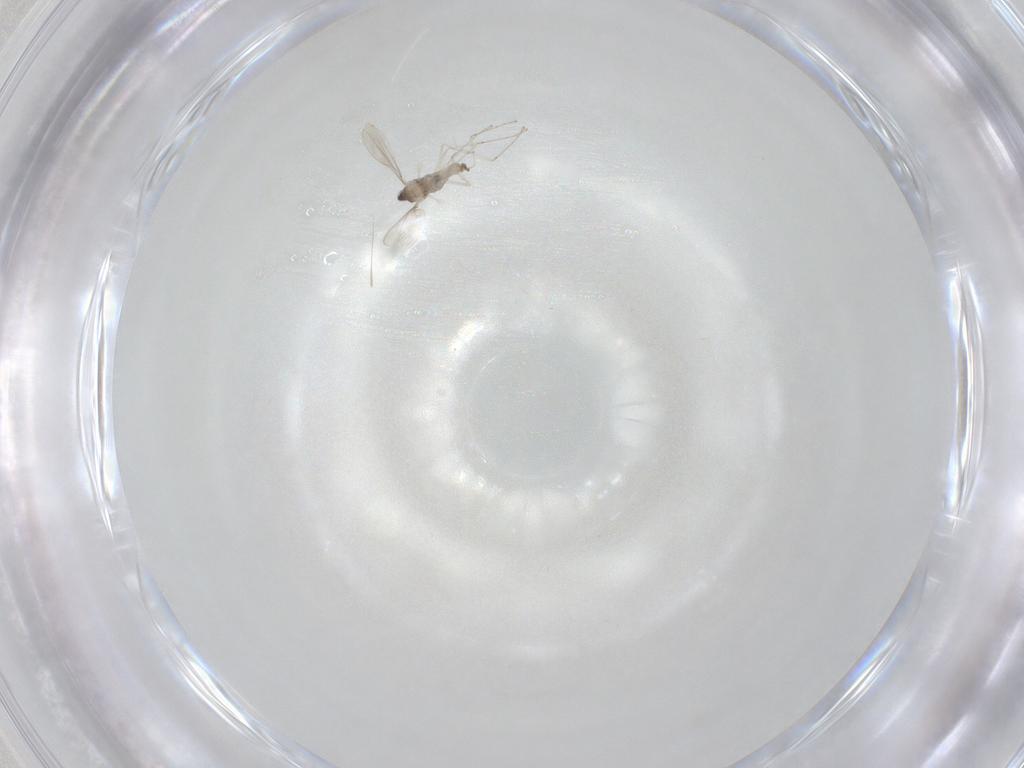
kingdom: Animalia
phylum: Arthropoda
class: Insecta
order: Diptera
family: Cecidomyiidae
